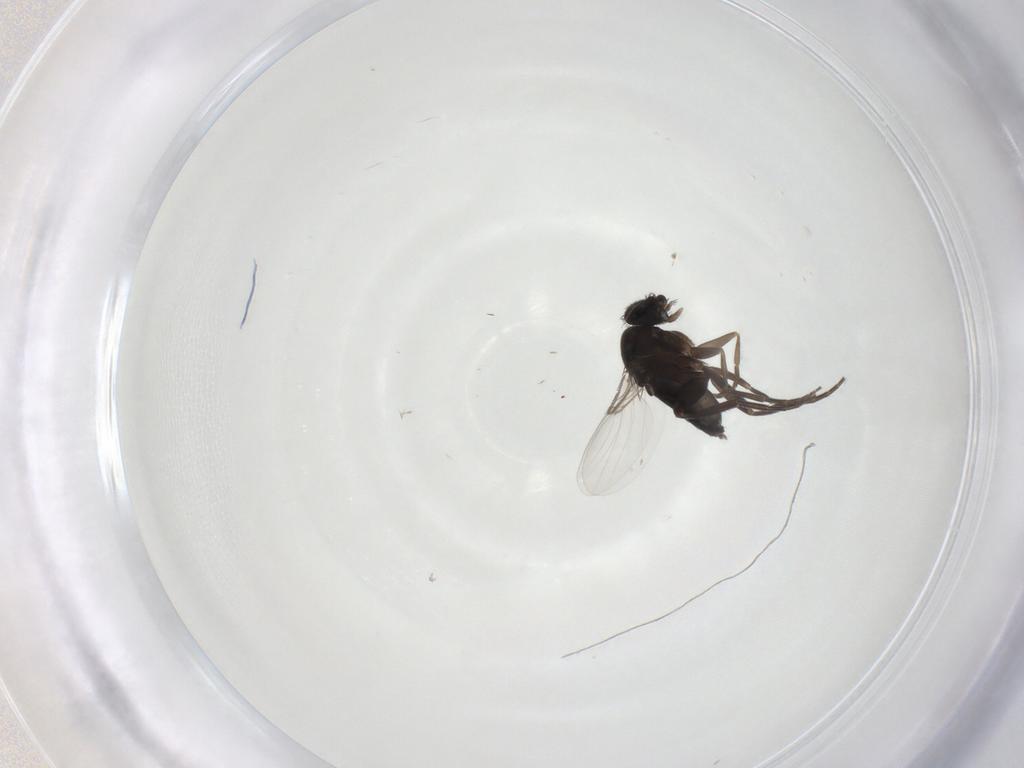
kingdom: Animalia
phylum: Arthropoda
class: Insecta
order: Diptera
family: Phoridae
